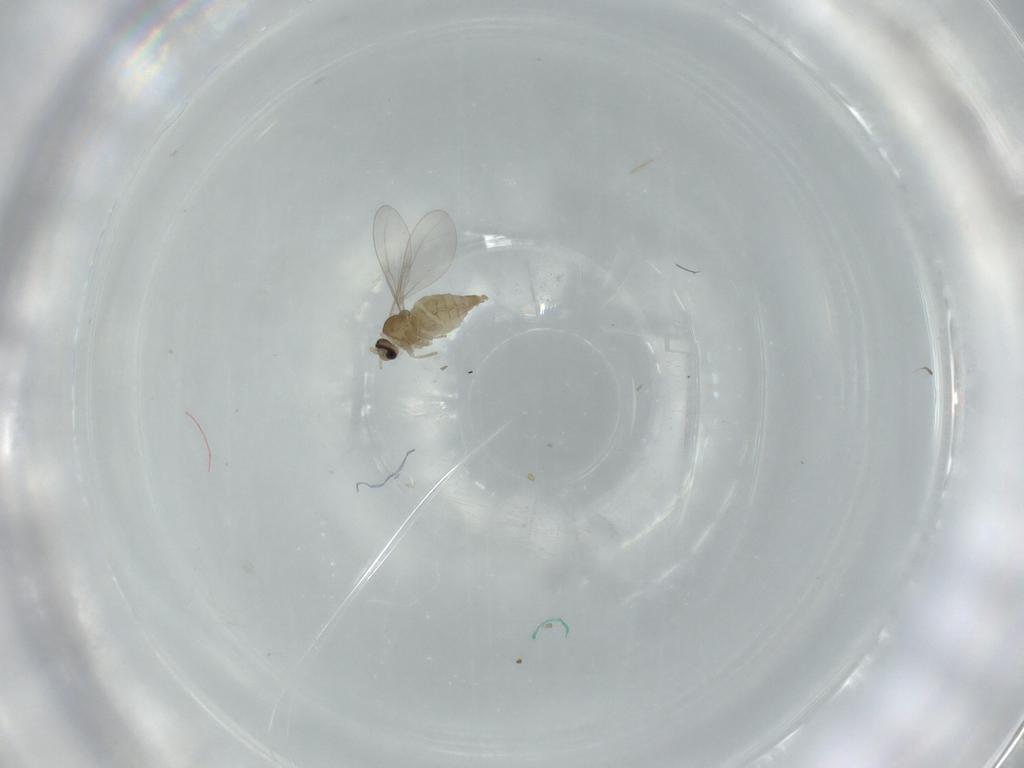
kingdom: Animalia
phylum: Arthropoda
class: Insecta
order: Diptera
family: Cecidomyiidae
